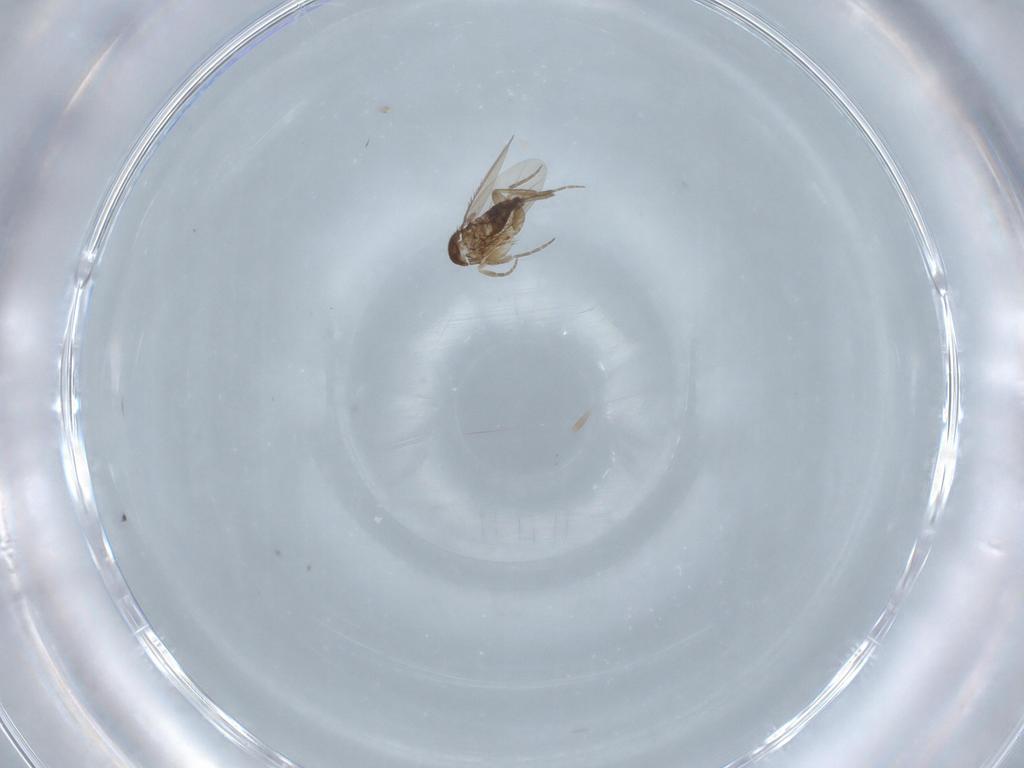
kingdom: Animalia
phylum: Arthropoda
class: Insecta
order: Diptera
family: Phoridae
